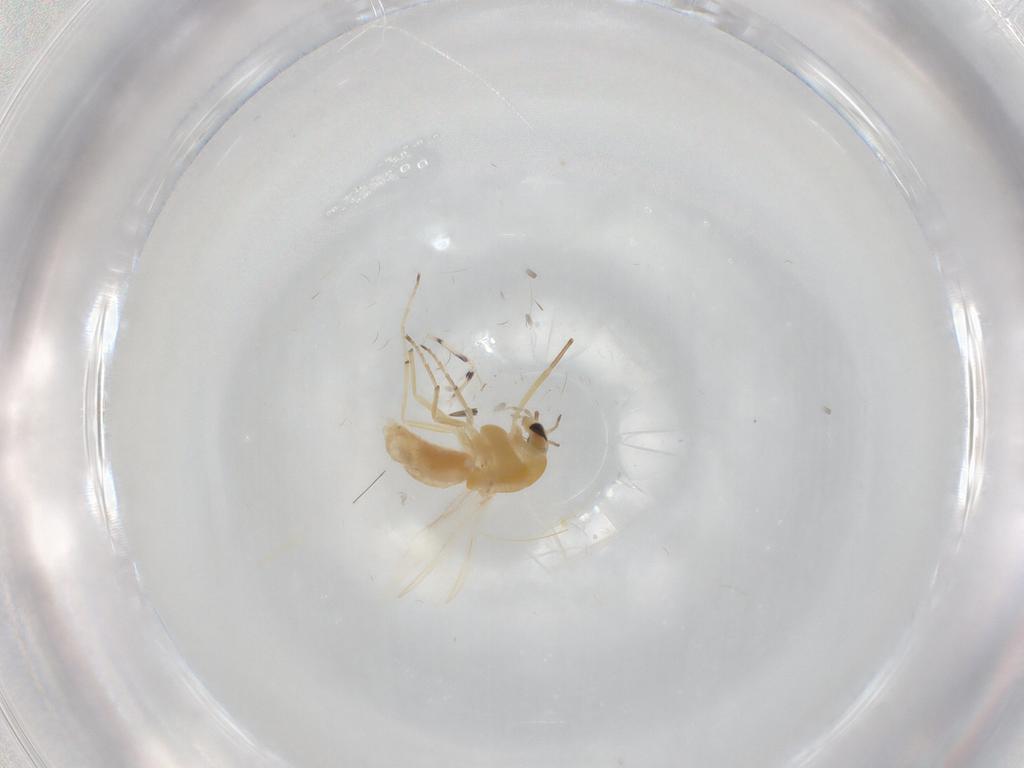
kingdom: Animalia
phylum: Arthropoda
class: Insecta
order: Diptera
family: Chironomidae
